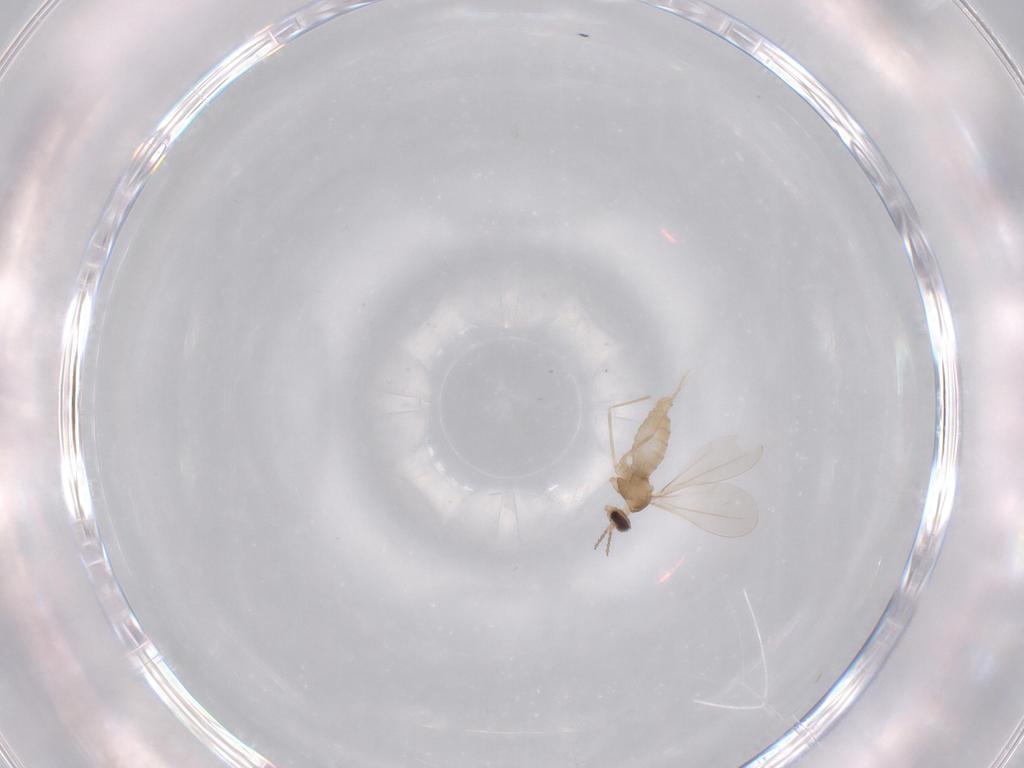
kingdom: Animalia
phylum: Arthropoda
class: Insecta
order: Diptera
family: Cecidomyiidae
